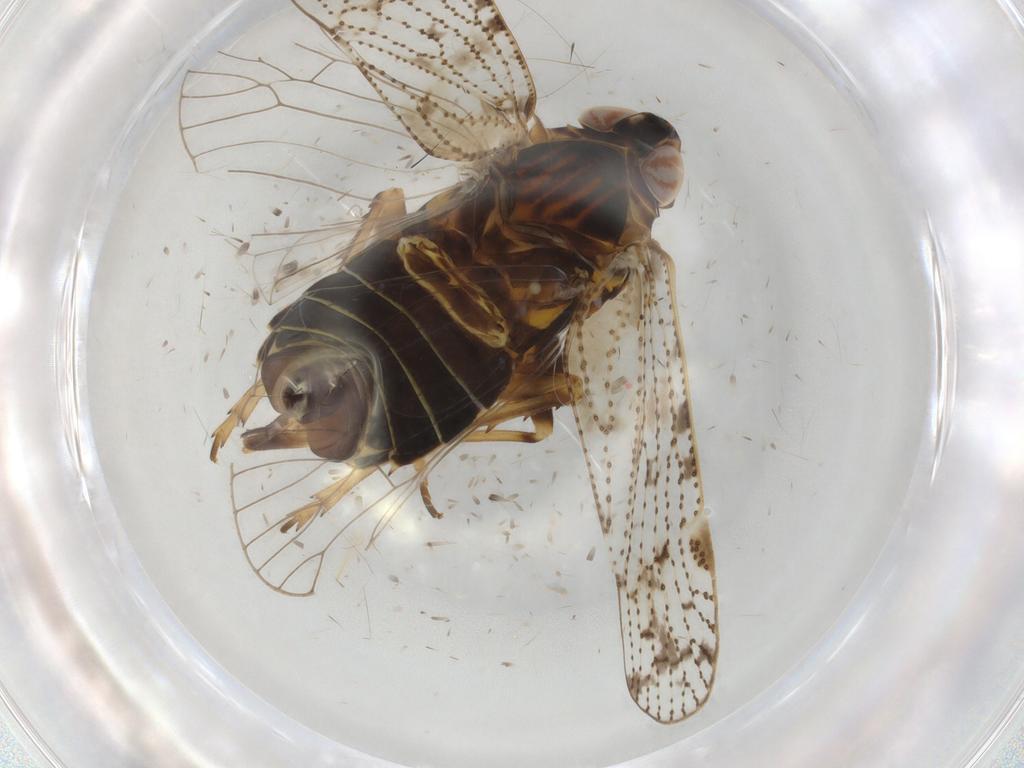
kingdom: Animalia
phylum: Arthropoda
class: Insecta
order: Hemiptera
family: Cixiidae
